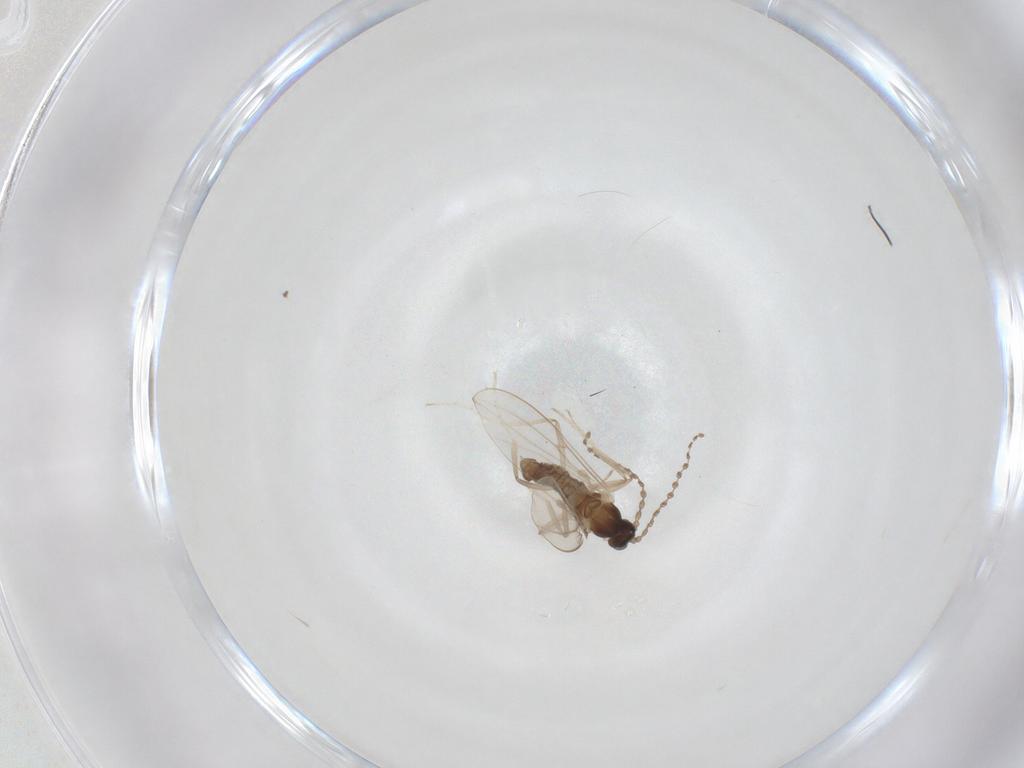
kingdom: Animalia
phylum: Arthropoda
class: Insecta
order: Diptera
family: Cecidomyiidae
